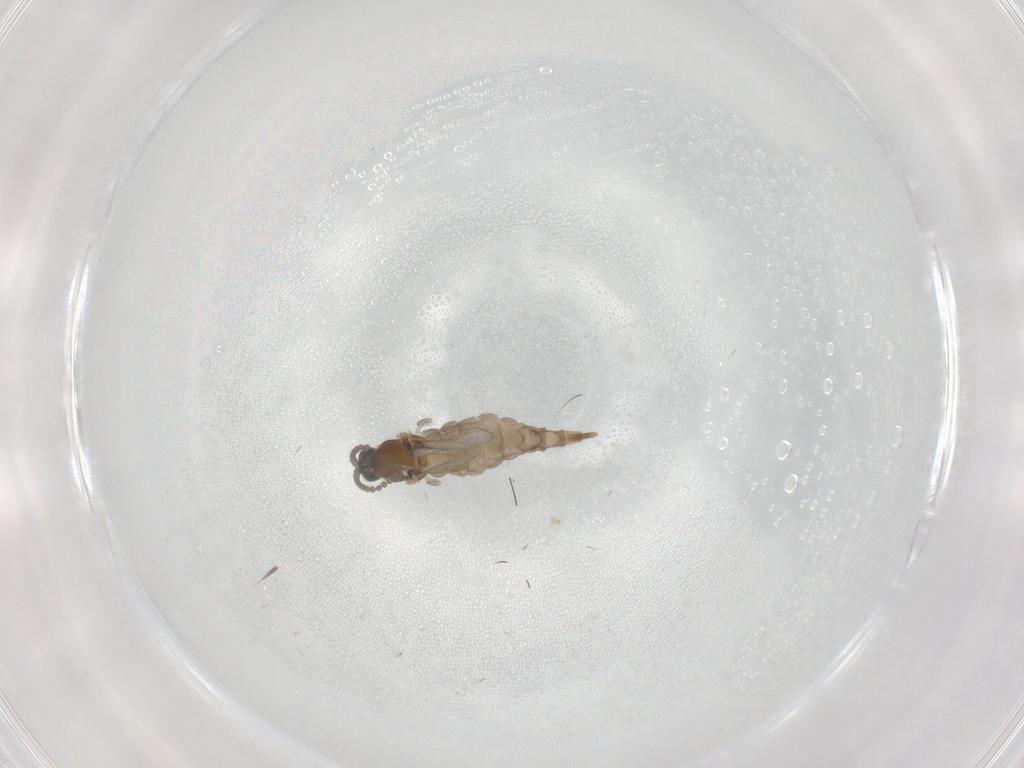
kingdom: Animalia
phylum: Arthropoda
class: Insecta
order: Diptera
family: Cecidomyiidae
